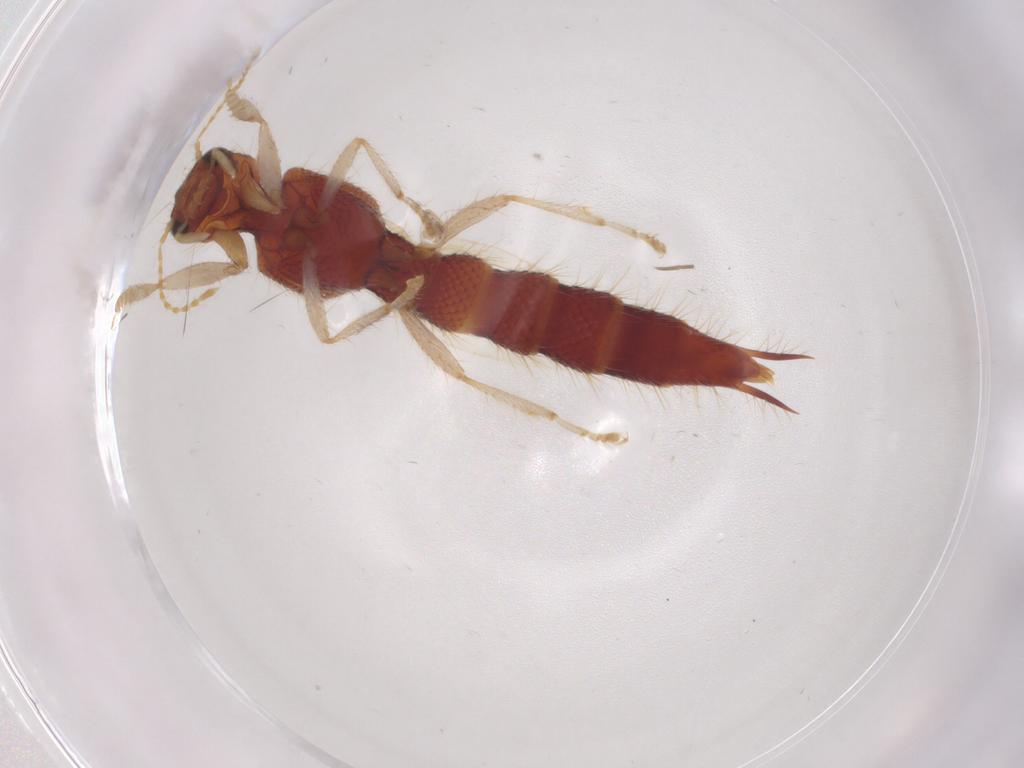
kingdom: Animalia
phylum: Arthropoda
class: Insecta
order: Coleoptera
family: Staphylinidae
